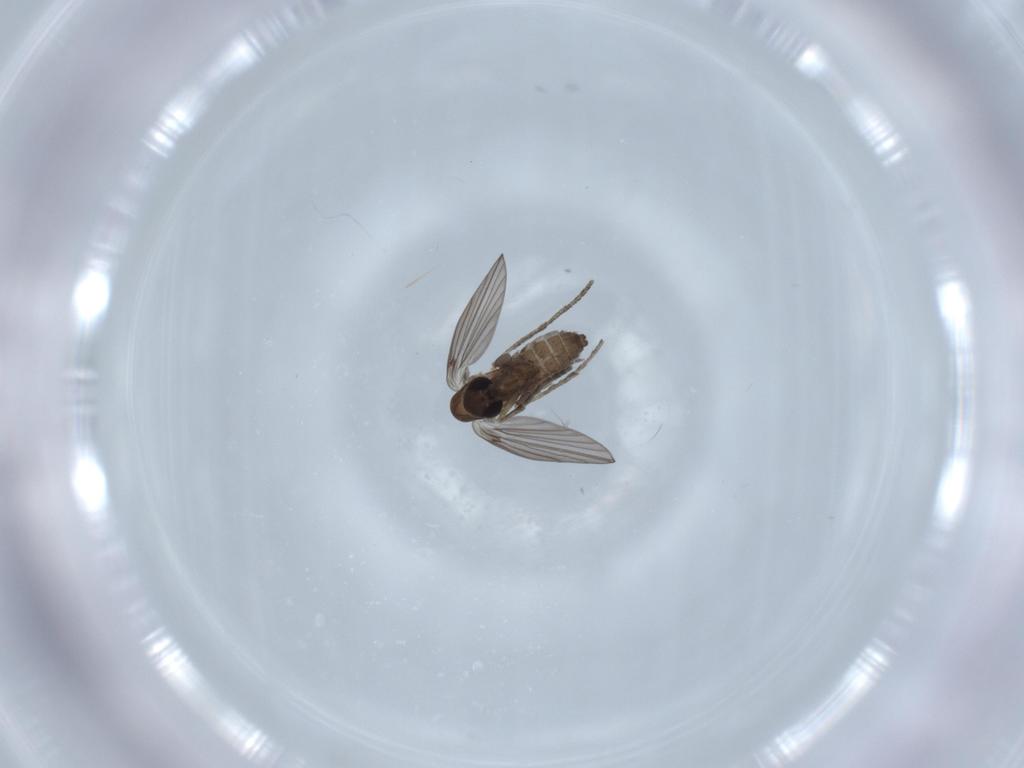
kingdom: Animalia
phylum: Arthropoda
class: Insecta
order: Diptera
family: Psychodidae
